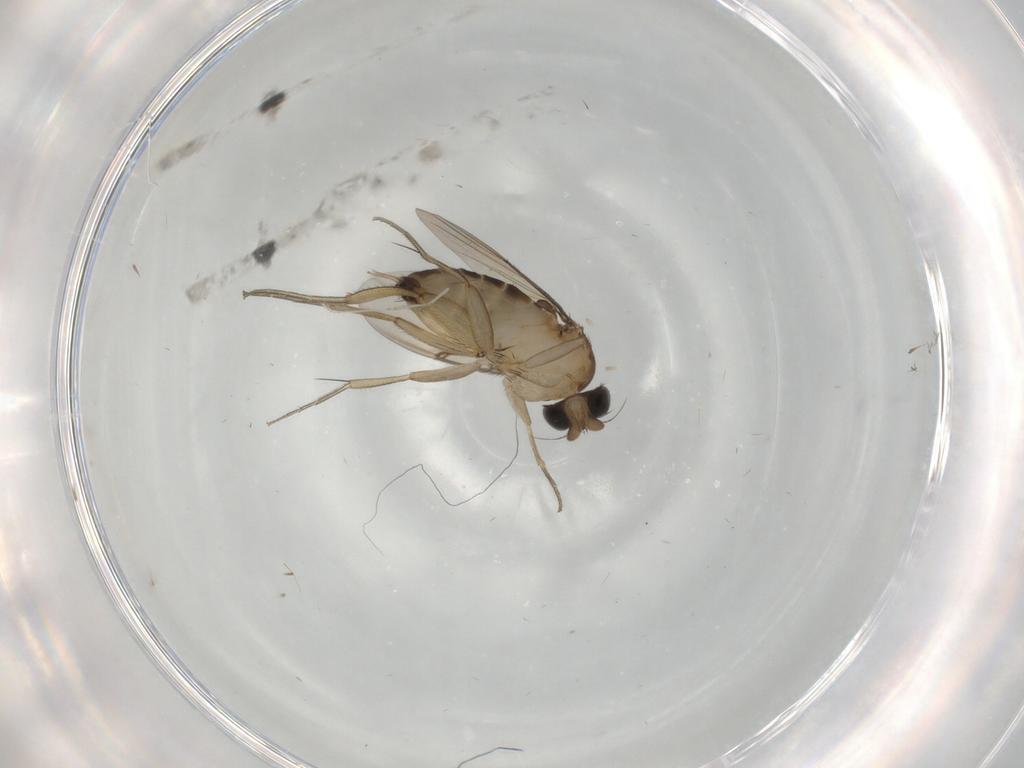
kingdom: Animalia
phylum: Arthropoda
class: Insecta
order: Diptera
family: Phoridae
